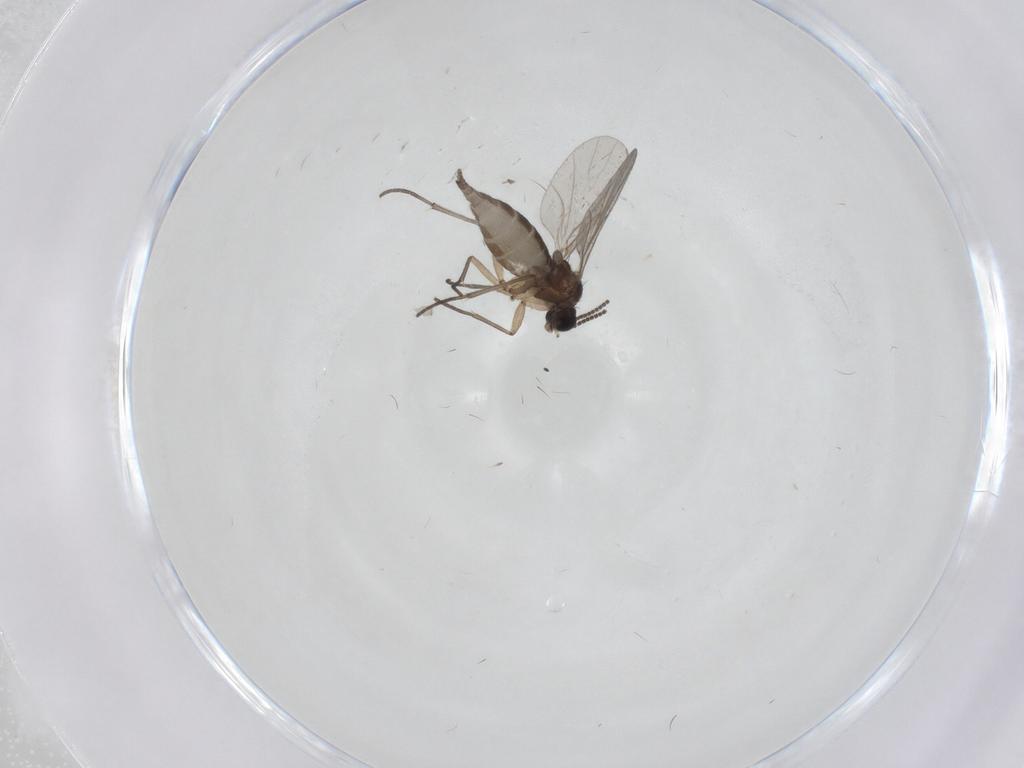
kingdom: Animalia
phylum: Arthropoda
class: Insecta
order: Diptera
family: Sciaridae
